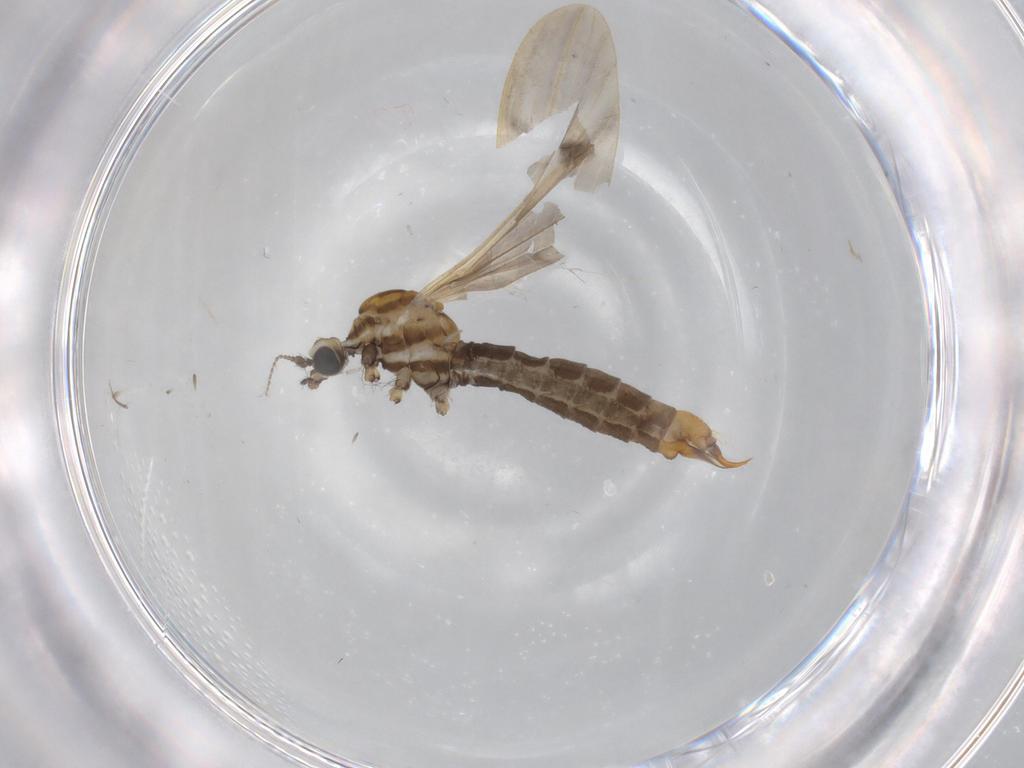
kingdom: Animalia
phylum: Arthropoda
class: Insecta
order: Diptera
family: Limoniidae
